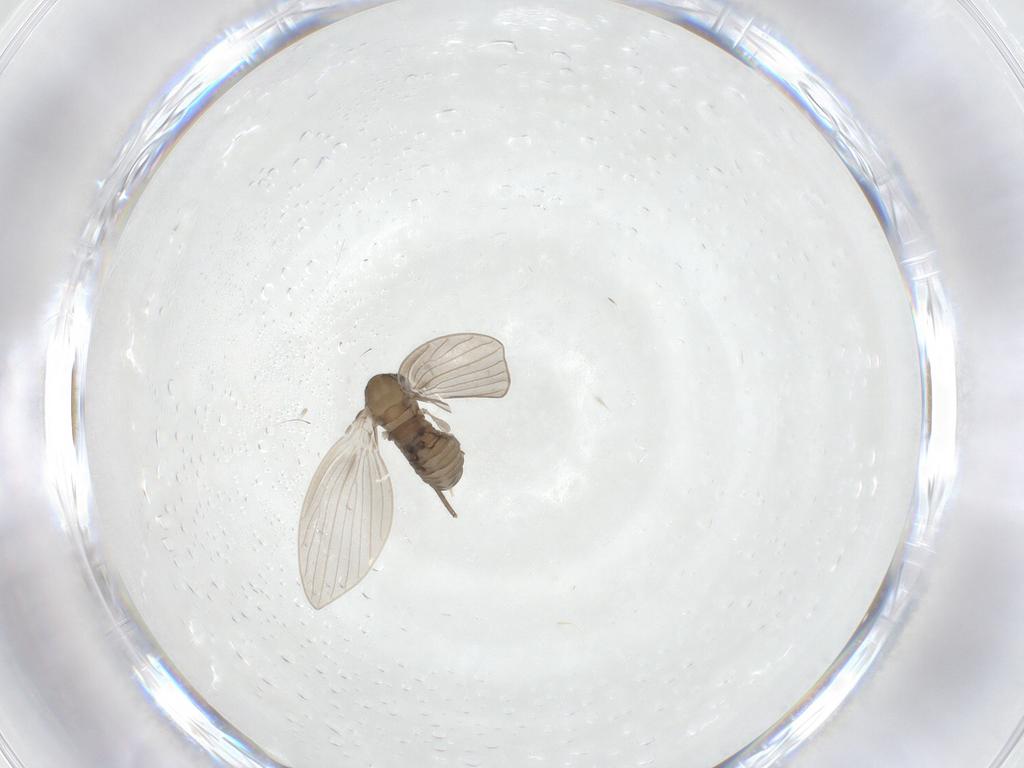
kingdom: Animalia
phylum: Arthropoda
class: Insecta
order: Diptera
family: Psychodidae
